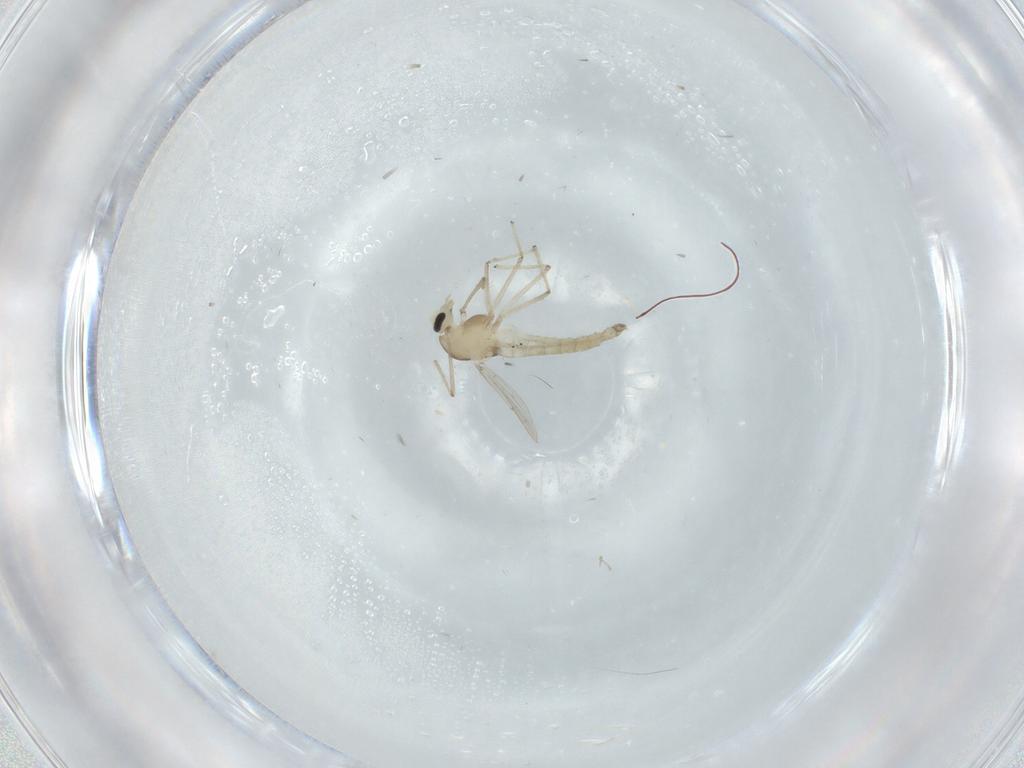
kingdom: Animalia
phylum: Arthropoda
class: Insecta
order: Diptera
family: Chironomidae
